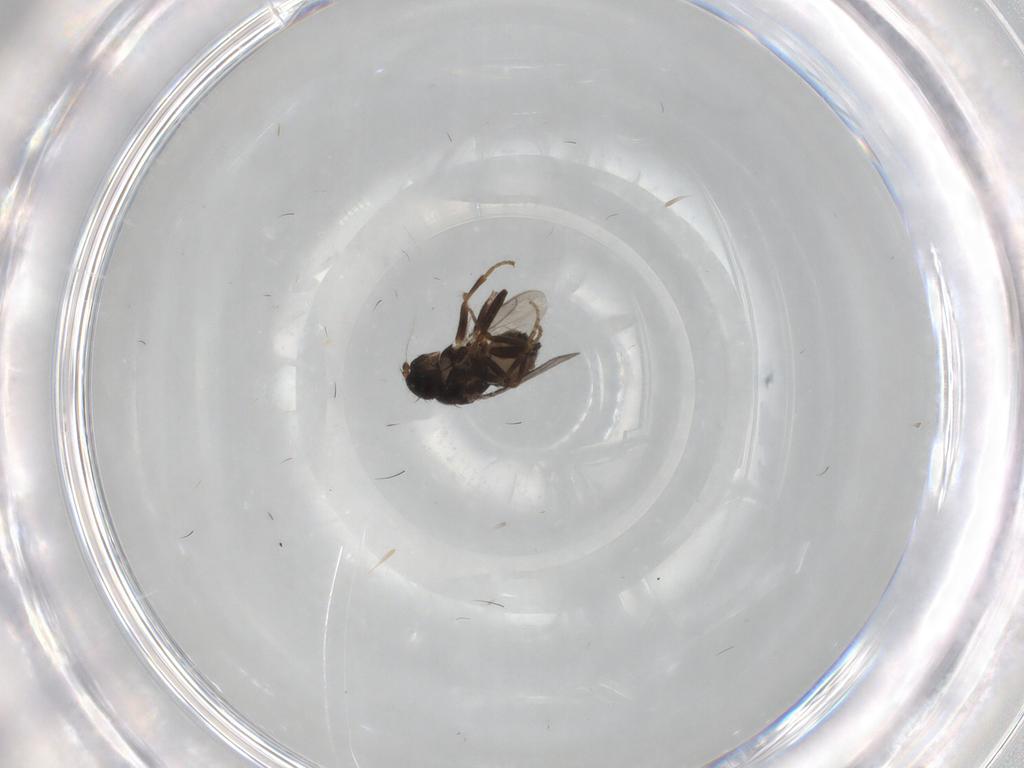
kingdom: Animalia
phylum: Arthropoda
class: Insecta
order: Diptera
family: Sphaeroceridae
